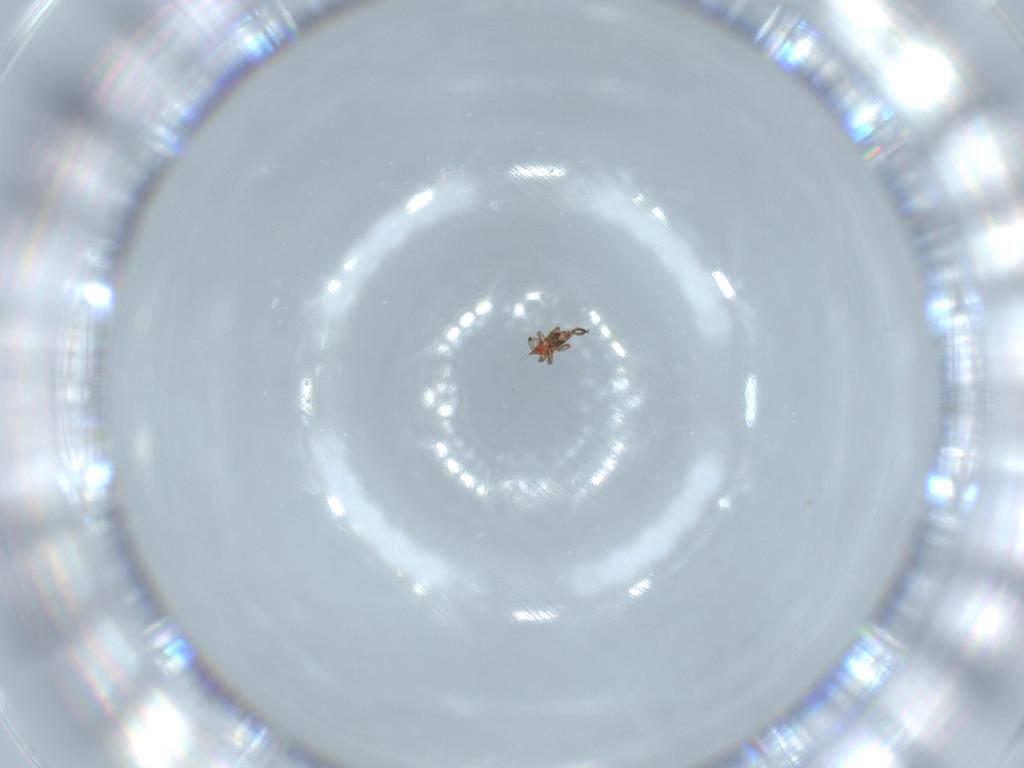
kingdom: Animalia
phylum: Arthropoda
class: Insecta
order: Thysanoptera
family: Phlaeothripidae
